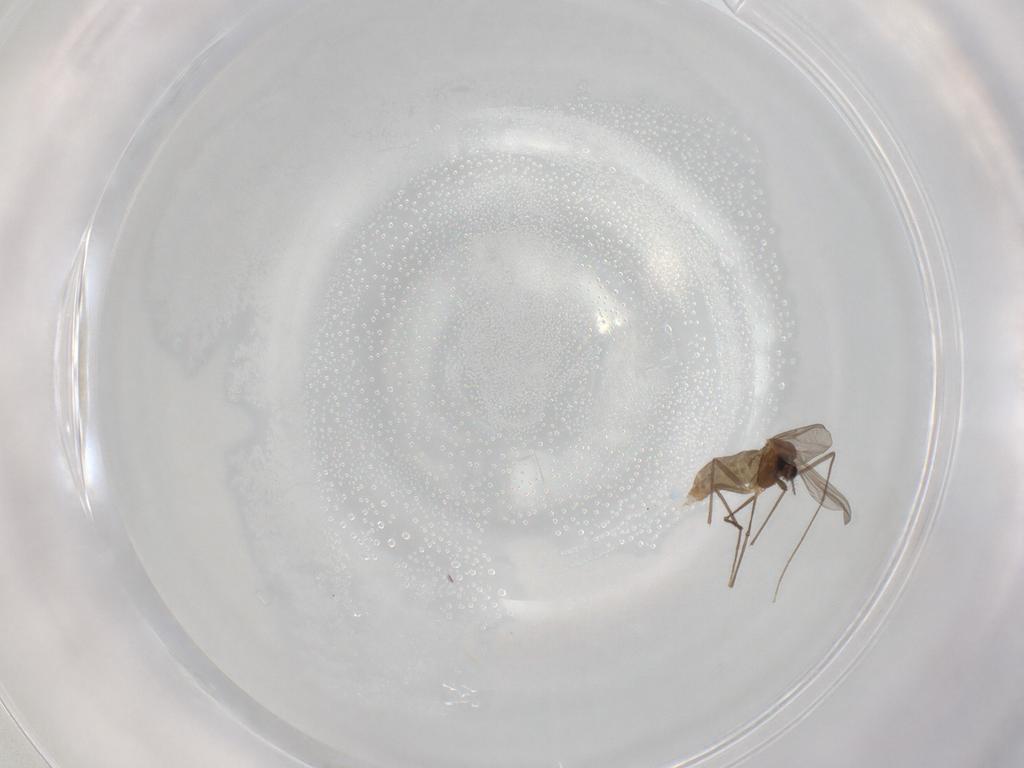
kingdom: Animalia
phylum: Arthropoda
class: Insecta
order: Diptera
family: Chironomidae
